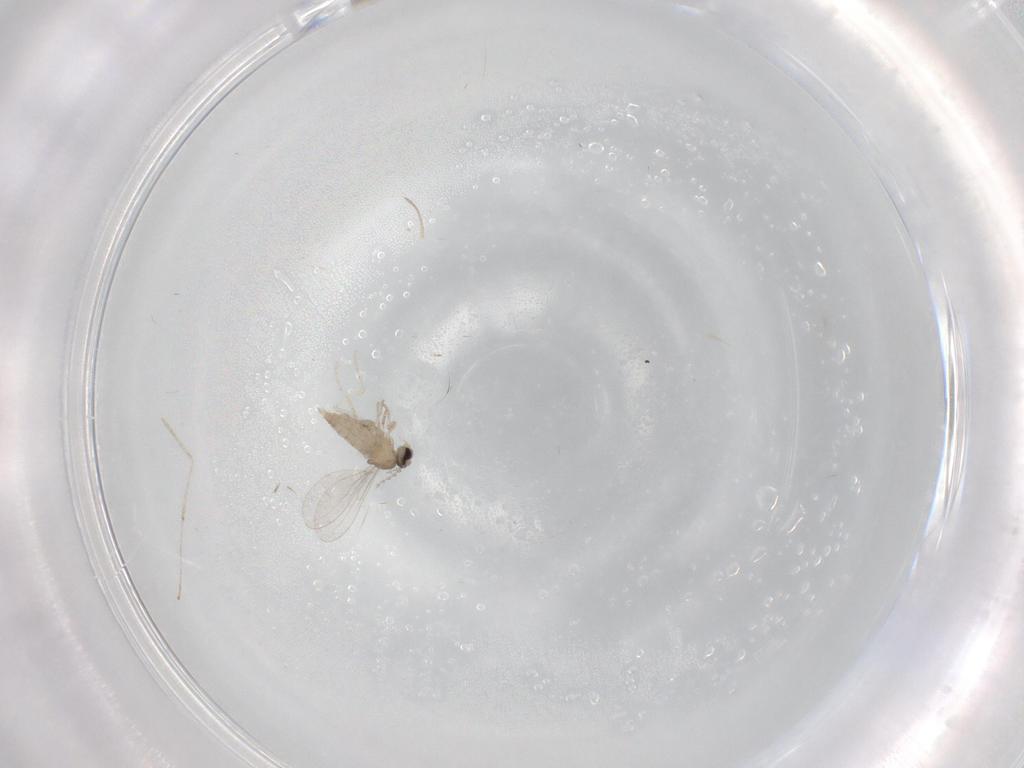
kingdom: Animalia
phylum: Arthropoda
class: Insecta
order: Diptera
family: Cecidomyiidae
